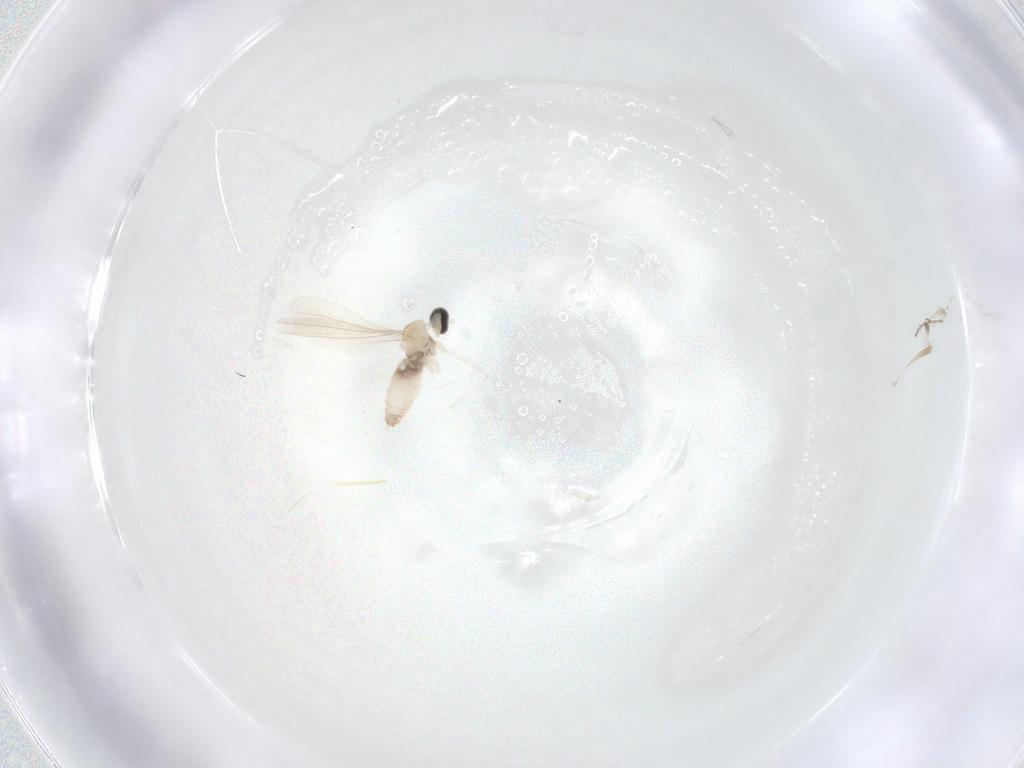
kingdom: Animalia
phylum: Arthropoda
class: Insecta
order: Diptera
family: Cecidomyiidae
